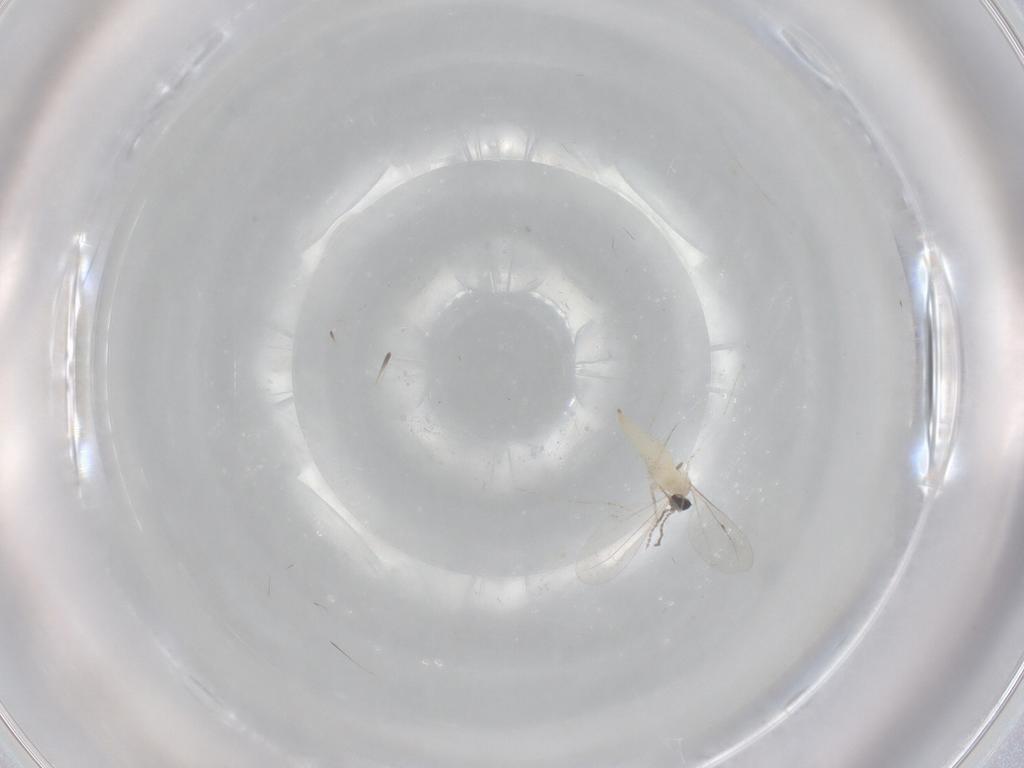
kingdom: Animalia
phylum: Arthropoda
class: Insecta
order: Diptera
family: Cecidomyiidae
